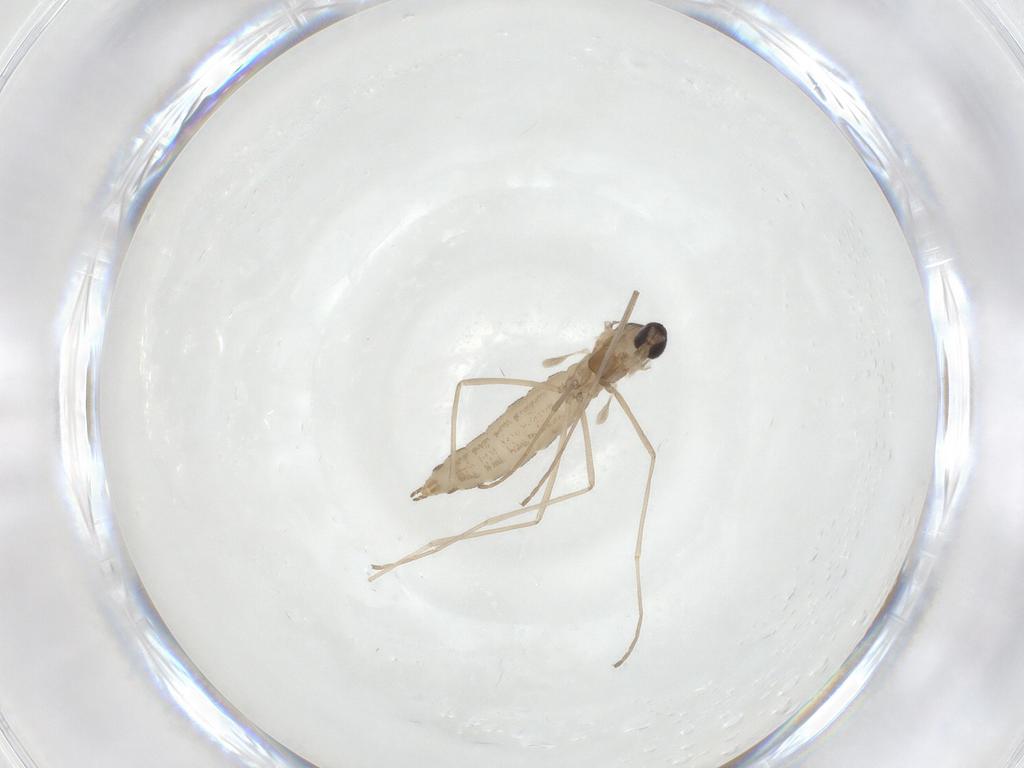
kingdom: Animalia
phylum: Arthropoda
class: Insecta
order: Diptera
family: Cecidomyiidae
